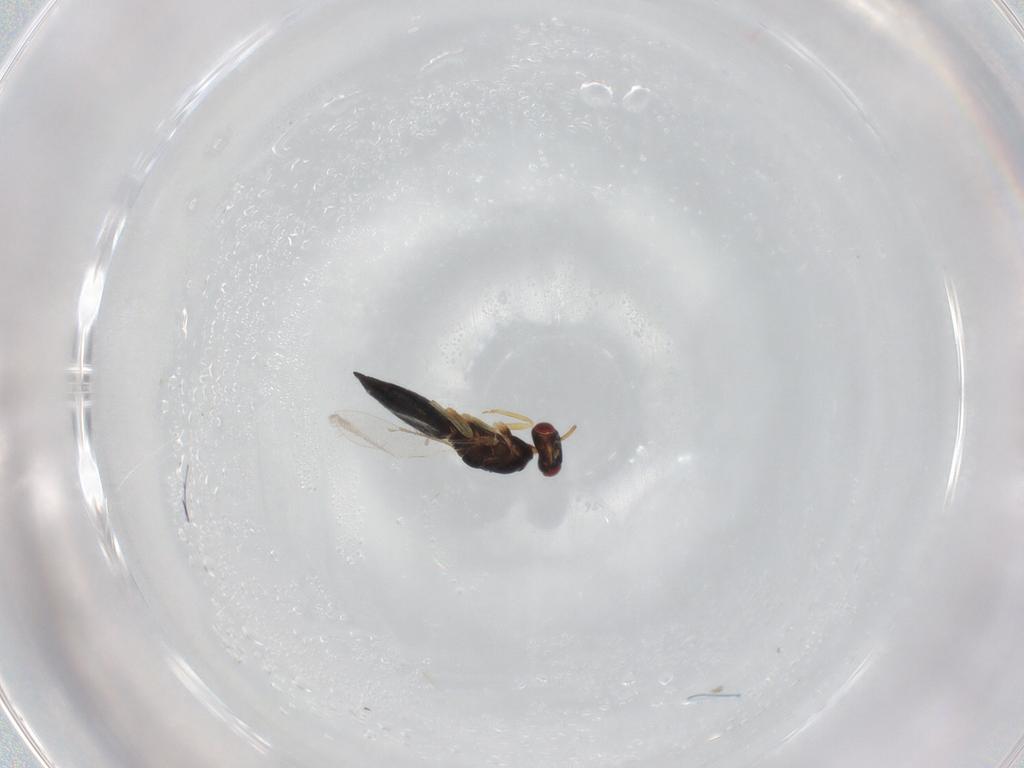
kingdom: Animalia
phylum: Arthropoda
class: Insecta
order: Hymenoptera
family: Eulophidae
